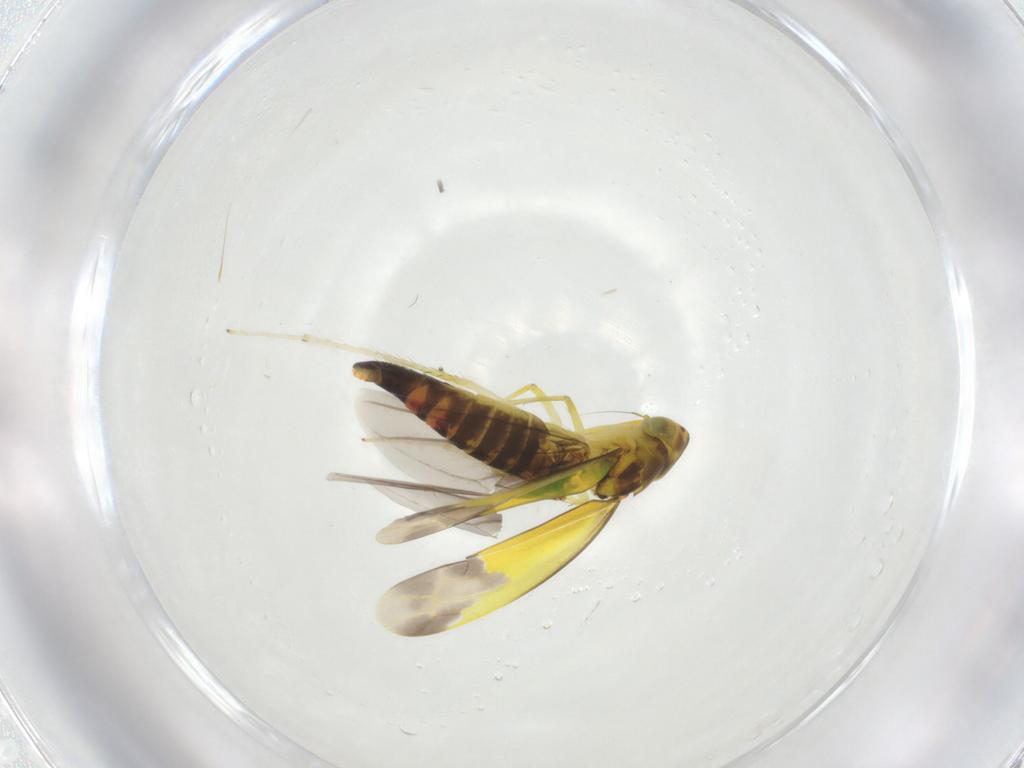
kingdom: Animalia
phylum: Arthropoda
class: Insecta
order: Hemiptera
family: Cicadellidae
